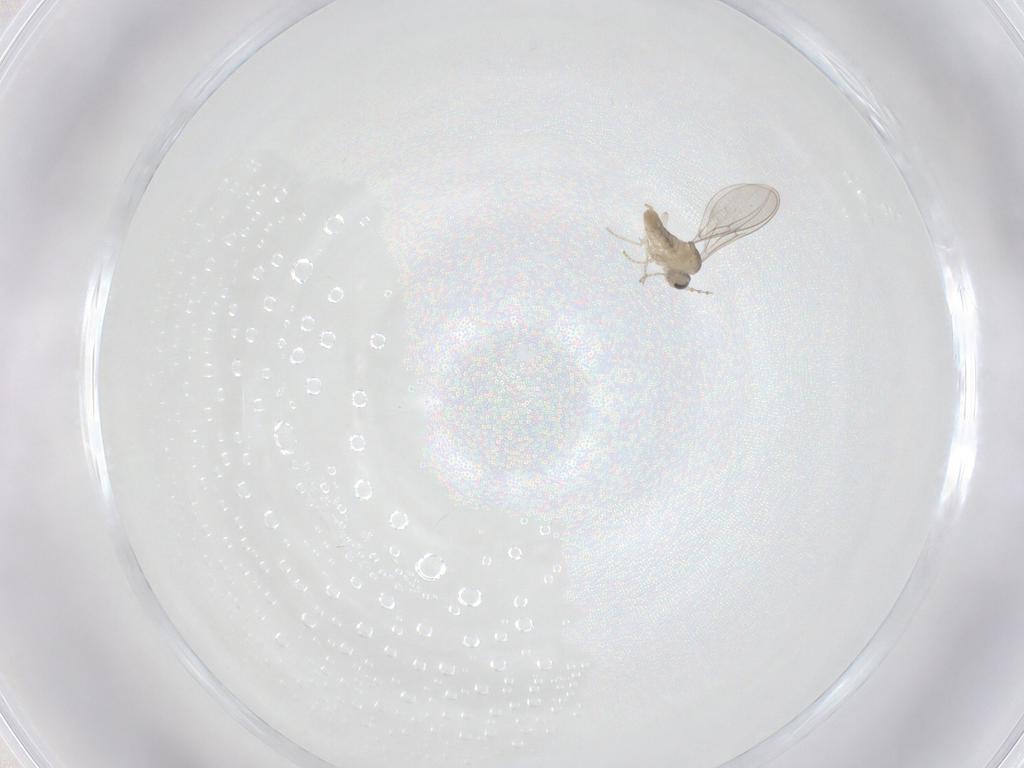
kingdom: Animalia
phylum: Arthropoda
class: Insecta
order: Diptera
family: Cecidomyiidae
